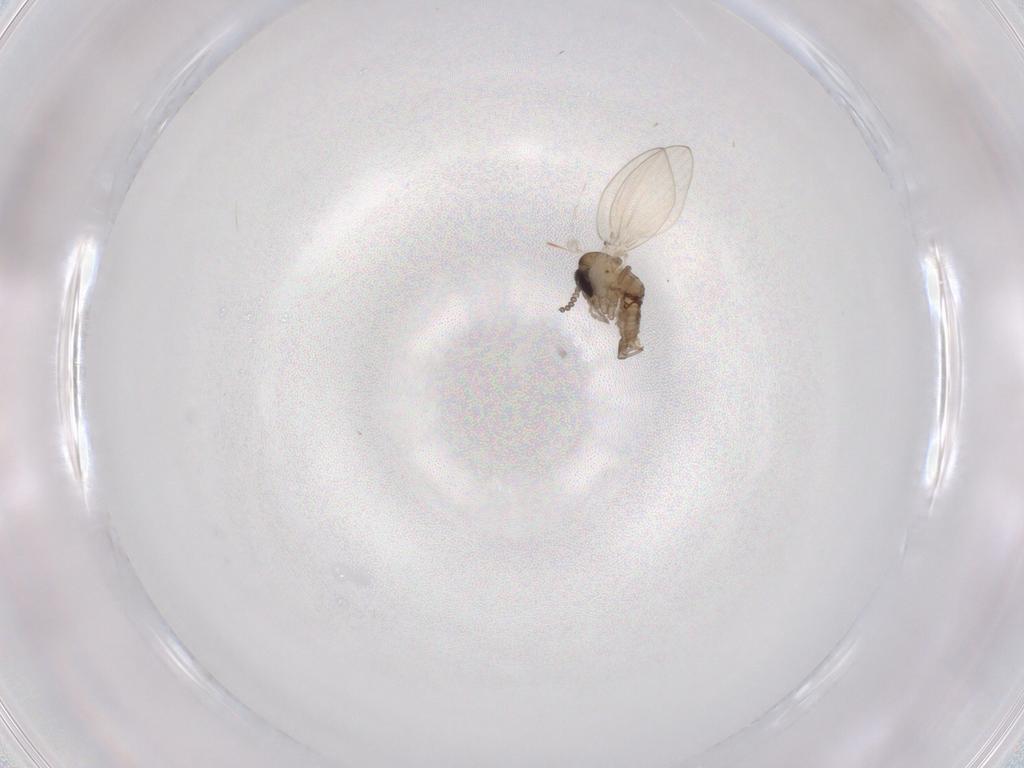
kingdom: Animalia
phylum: Arthropoda
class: Insecta
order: Diptera
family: Psychodidae
